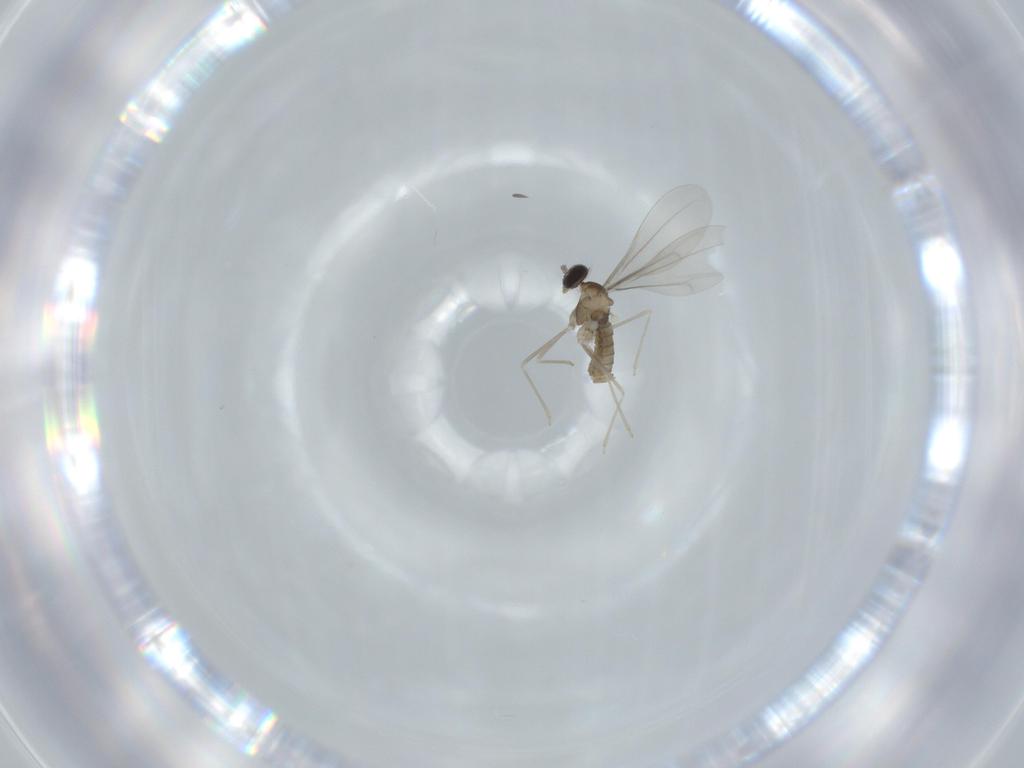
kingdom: Animalia
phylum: Arthropoda
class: Insecta
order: Diptera
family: Cecidomyiidae
